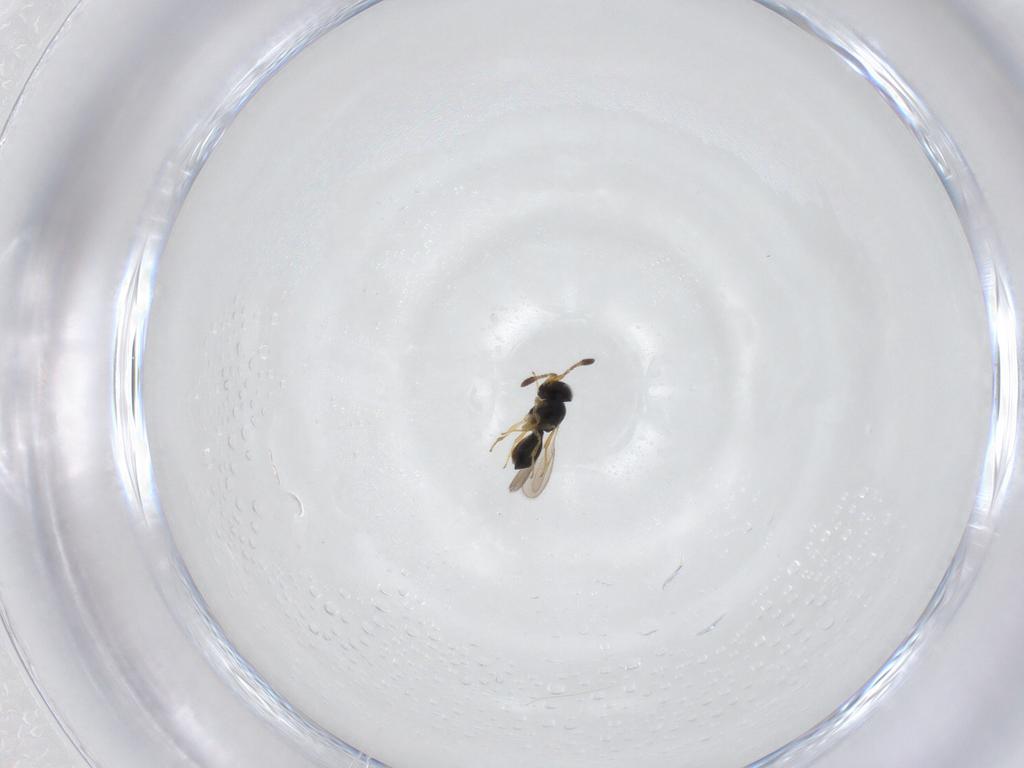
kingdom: Animalia
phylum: Arthropoda
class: Insecta
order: Hymenoptera
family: Scelionidae
